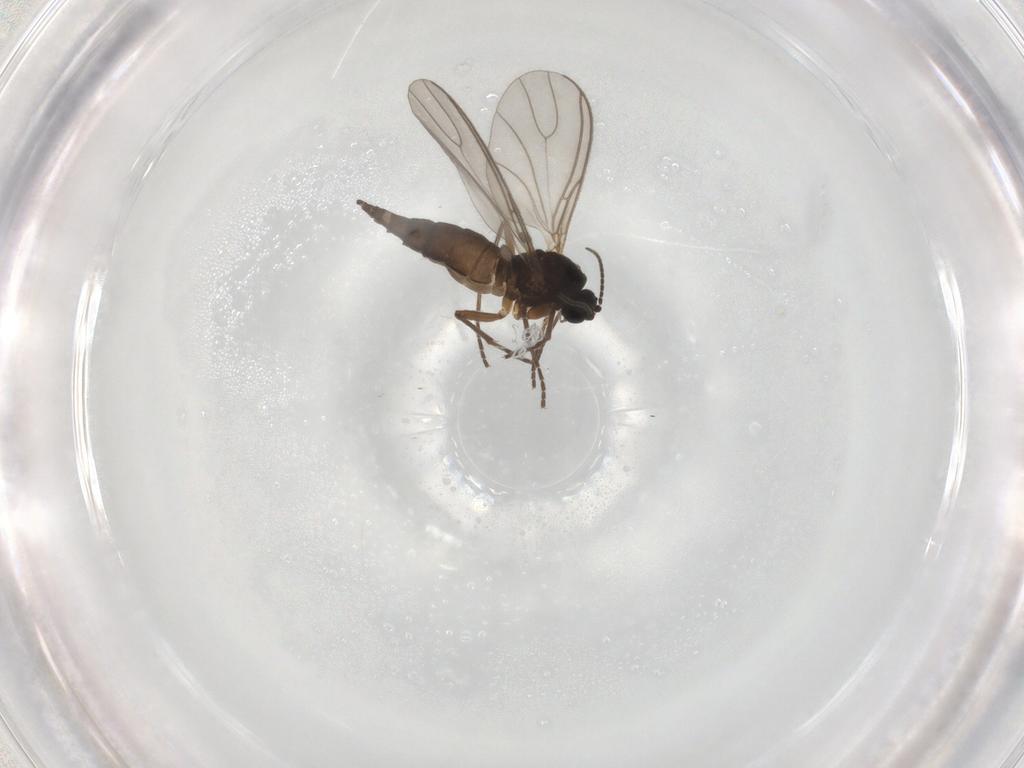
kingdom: Animalia
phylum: Arthropoda
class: Insecta
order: Diptera
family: Sciaridae
